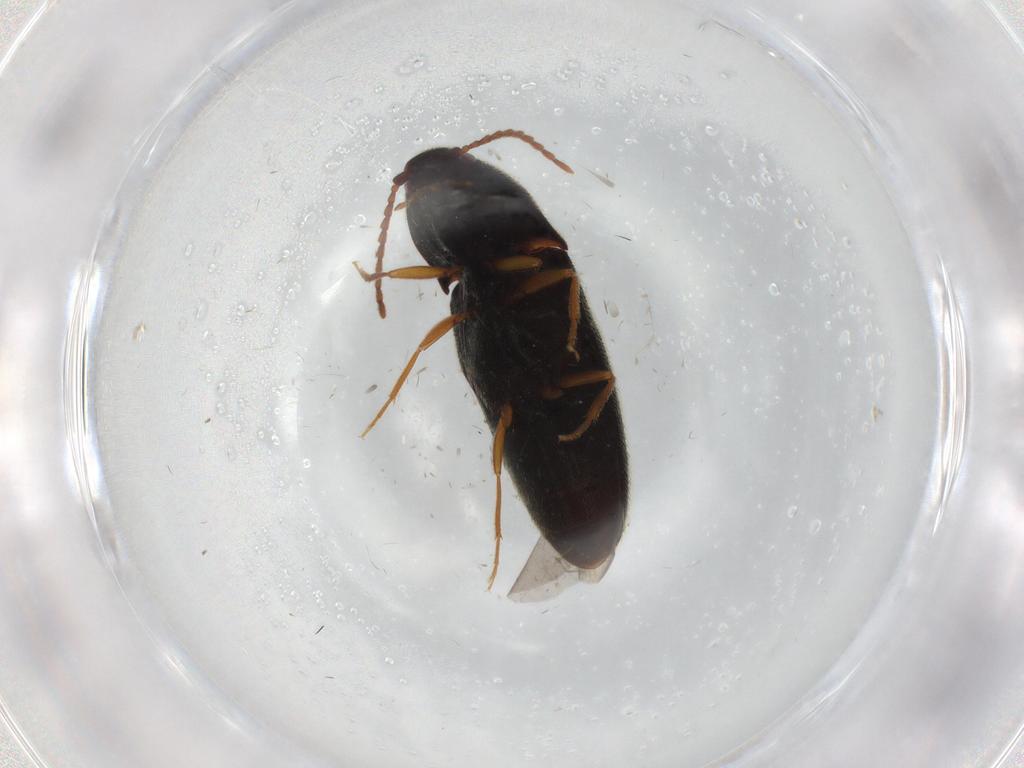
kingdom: Animalia
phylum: Arthropoda
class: Insecta
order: Coleoptera
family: Elateridae
